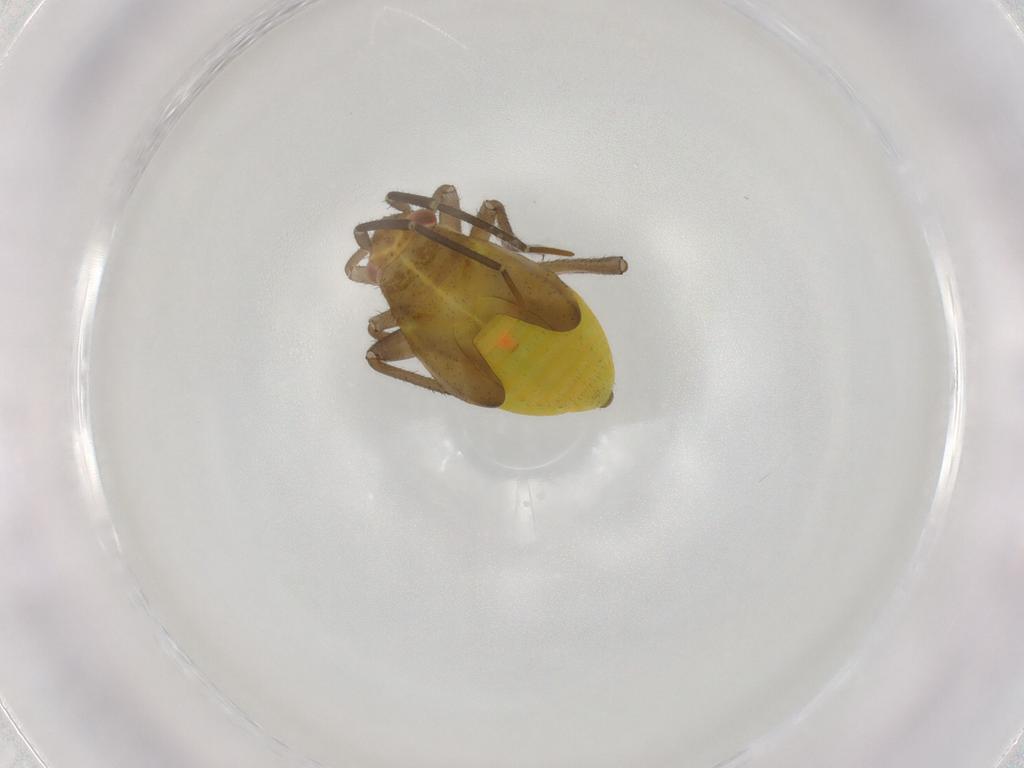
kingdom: Animalia
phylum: Arthropoda
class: Insecta
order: Hemiptera
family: Miridae
